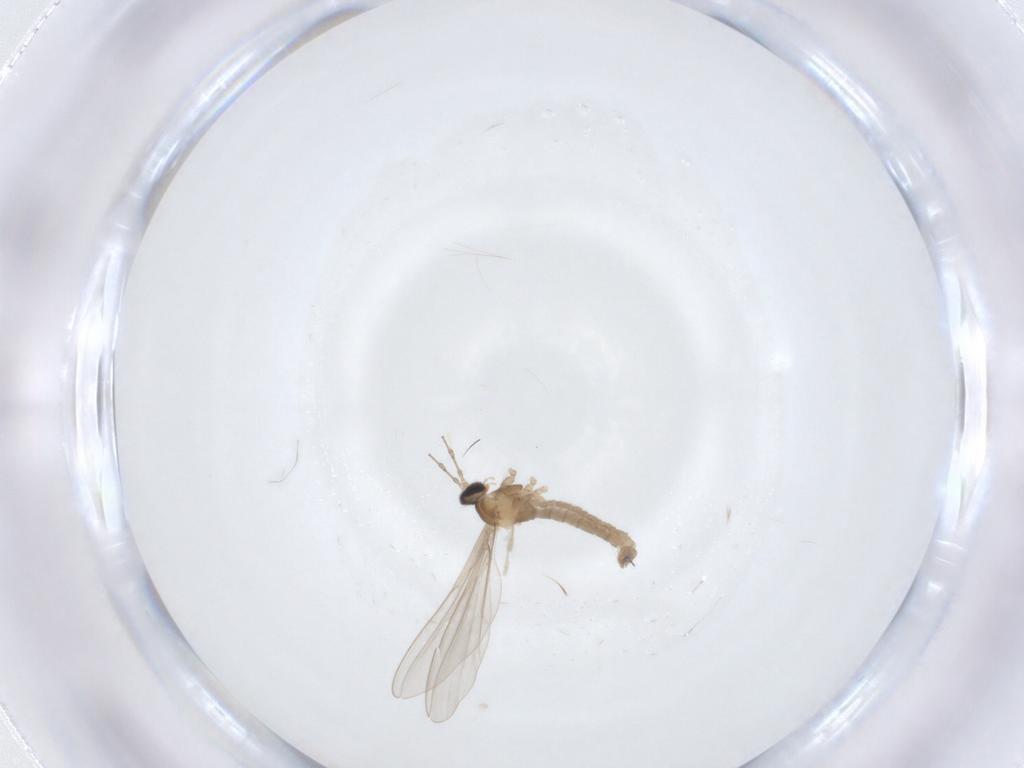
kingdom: Animalia
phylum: Arthropoda
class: Insecta
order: Diptera
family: Cecidomyiidae
